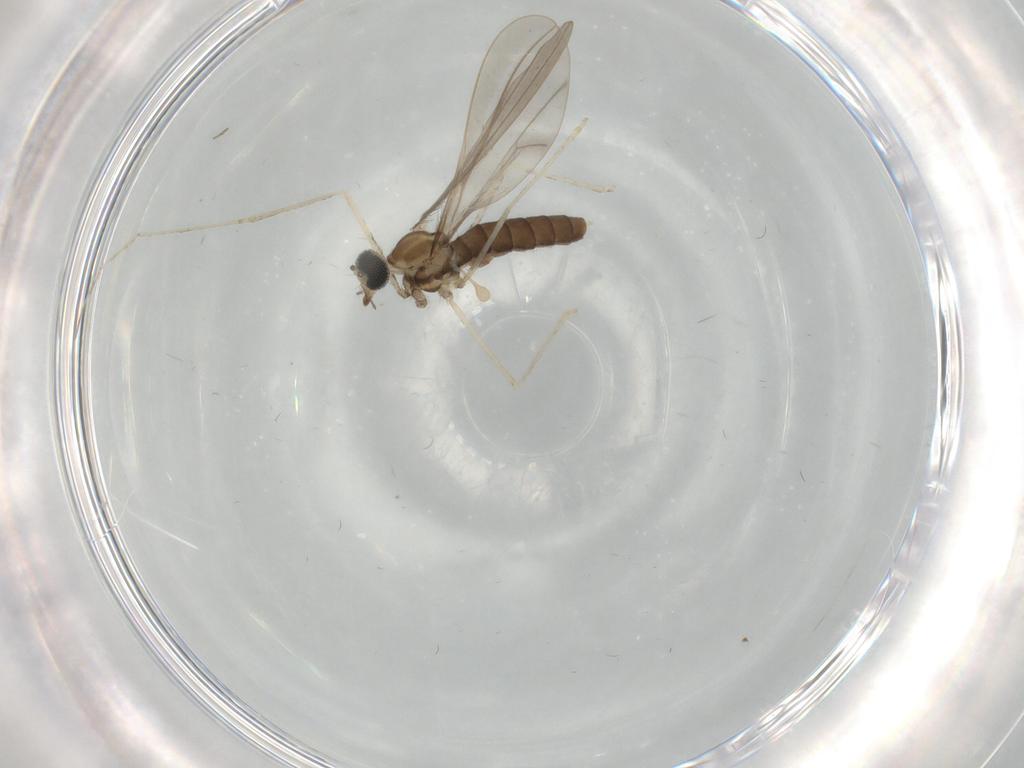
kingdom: Animalia
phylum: Arthropoda
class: Insecta
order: Diptera
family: Cecidomyiidae
